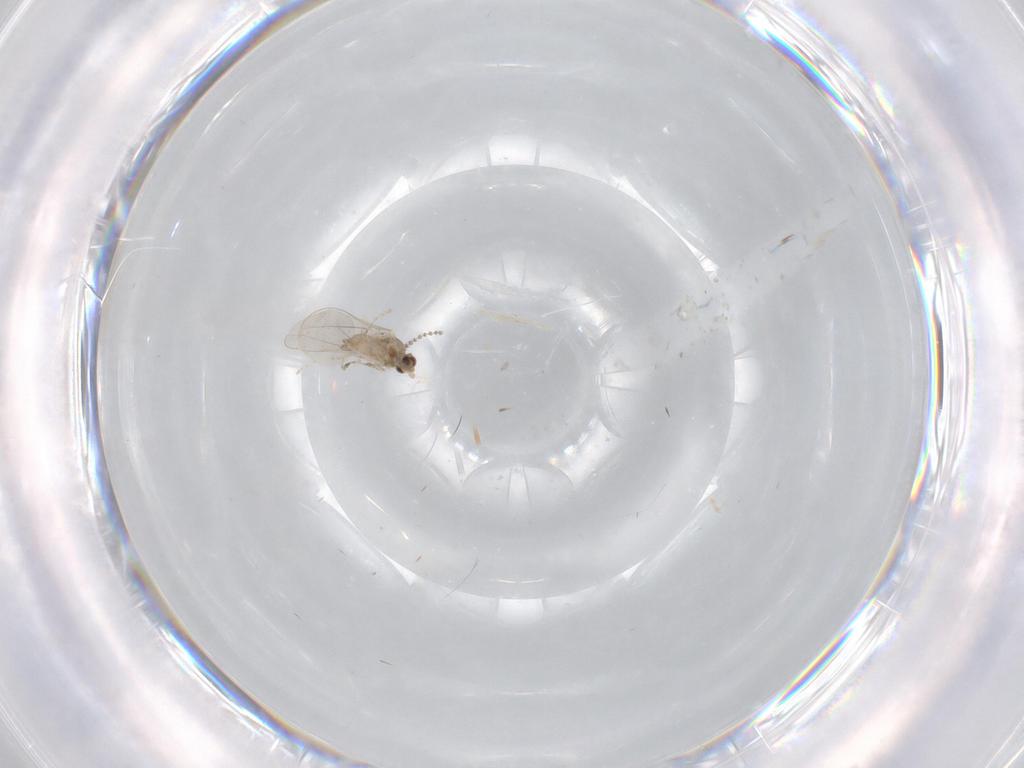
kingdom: Animalia
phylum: Arthropoda
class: Insecta
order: Diptera
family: Cecidomyiidae
